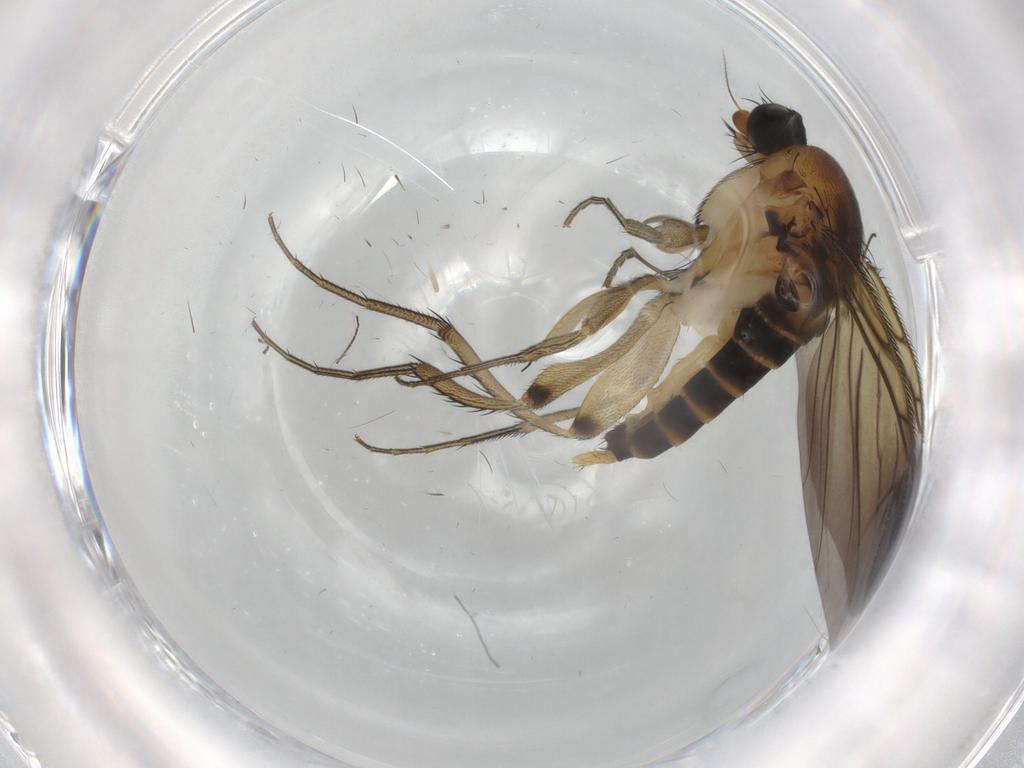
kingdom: Animalia
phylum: Arthropoda
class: Insecta
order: Diptera
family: Phoridae
